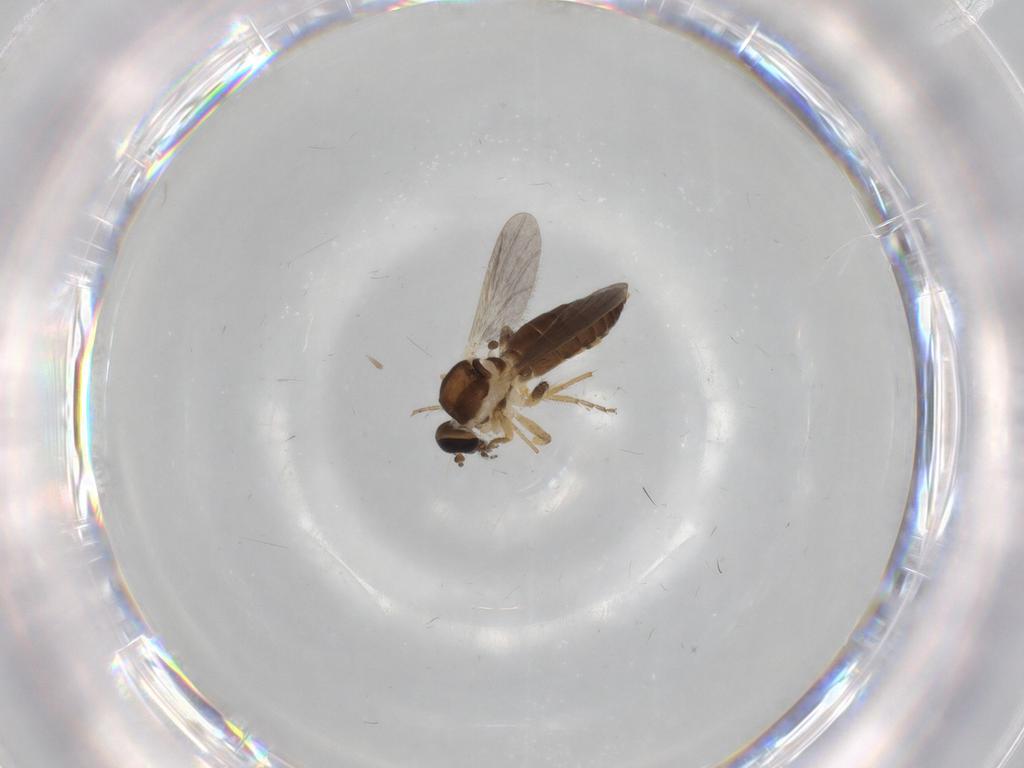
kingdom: Animalia
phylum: Arthropoda
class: Insecta
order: Diptera
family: Ceratopogonidae
